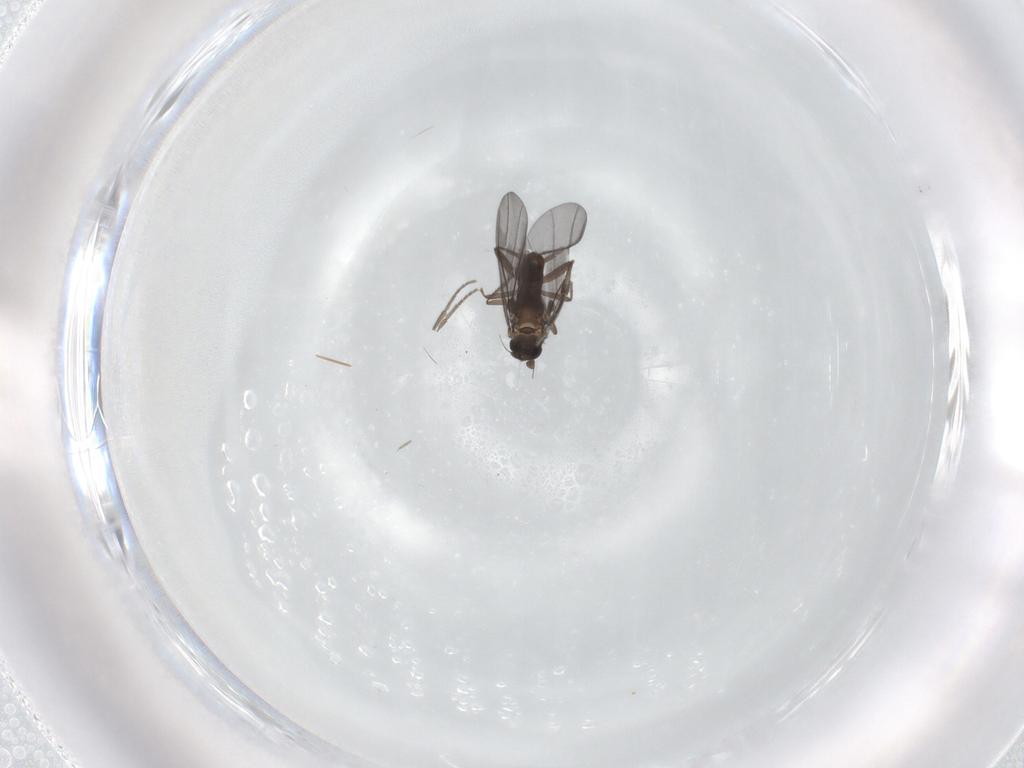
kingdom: Animalia
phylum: Arthropoda
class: Insecta
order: Diptera
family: Phoridae
